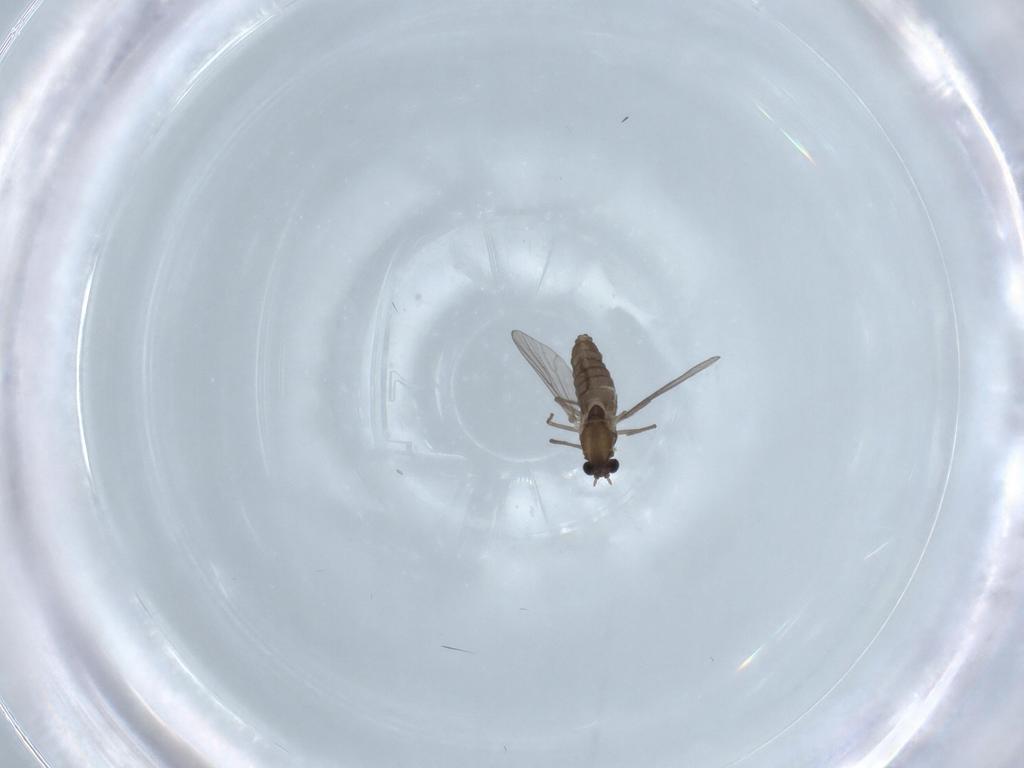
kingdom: Animalia
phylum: Arthropoda
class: Insecta
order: Diptera
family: Chironomidae
